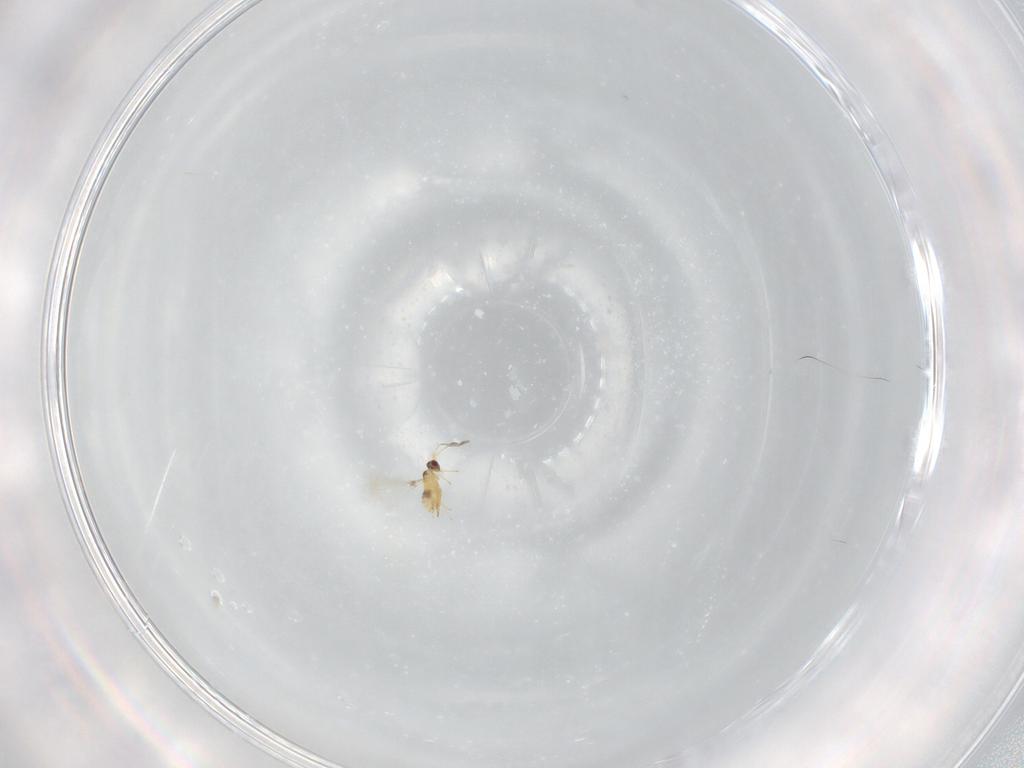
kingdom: Animalia
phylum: Arthropoda
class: Insecta
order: Hymenoptera
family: Mymaridae
